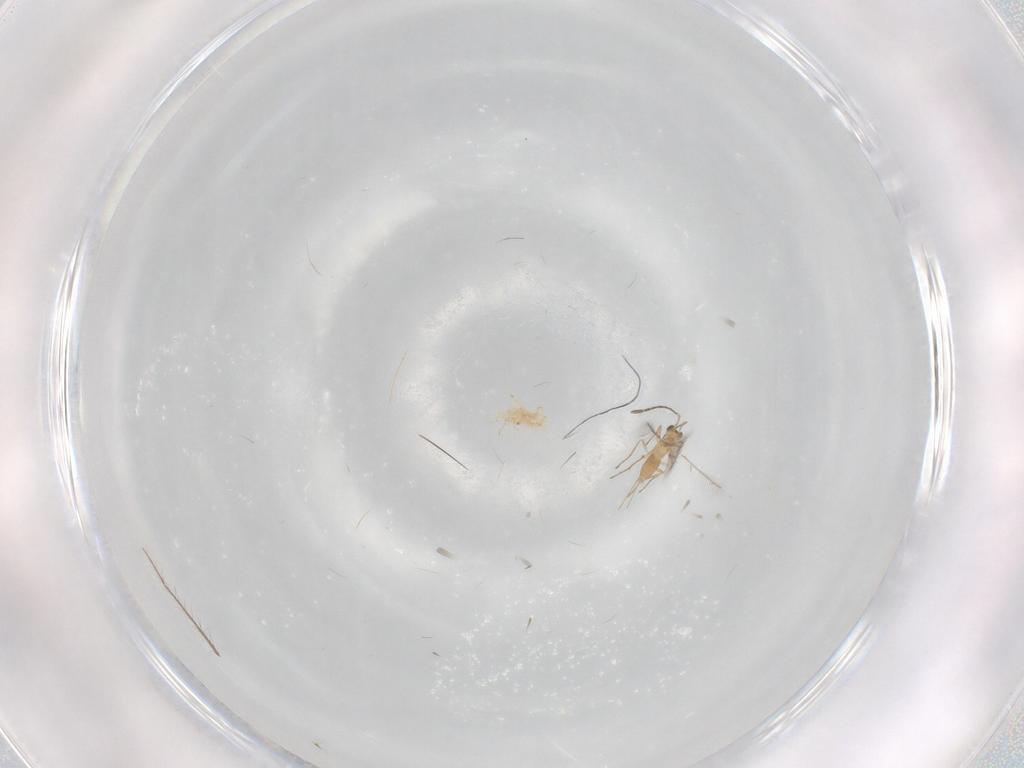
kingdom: Animalia
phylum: Arthropoda
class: Insecta
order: Hymenoptera
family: Mymaridae
